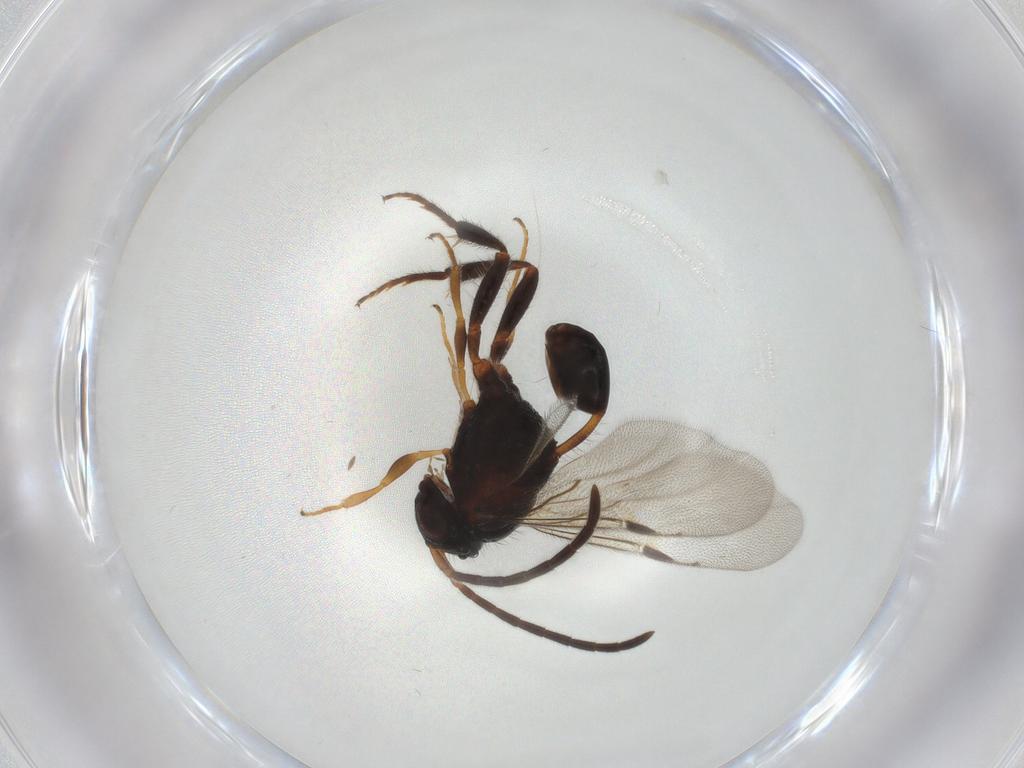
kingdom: Animalia
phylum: Arthropoda
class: Insecta
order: Hymenoptera
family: Evaniidae
